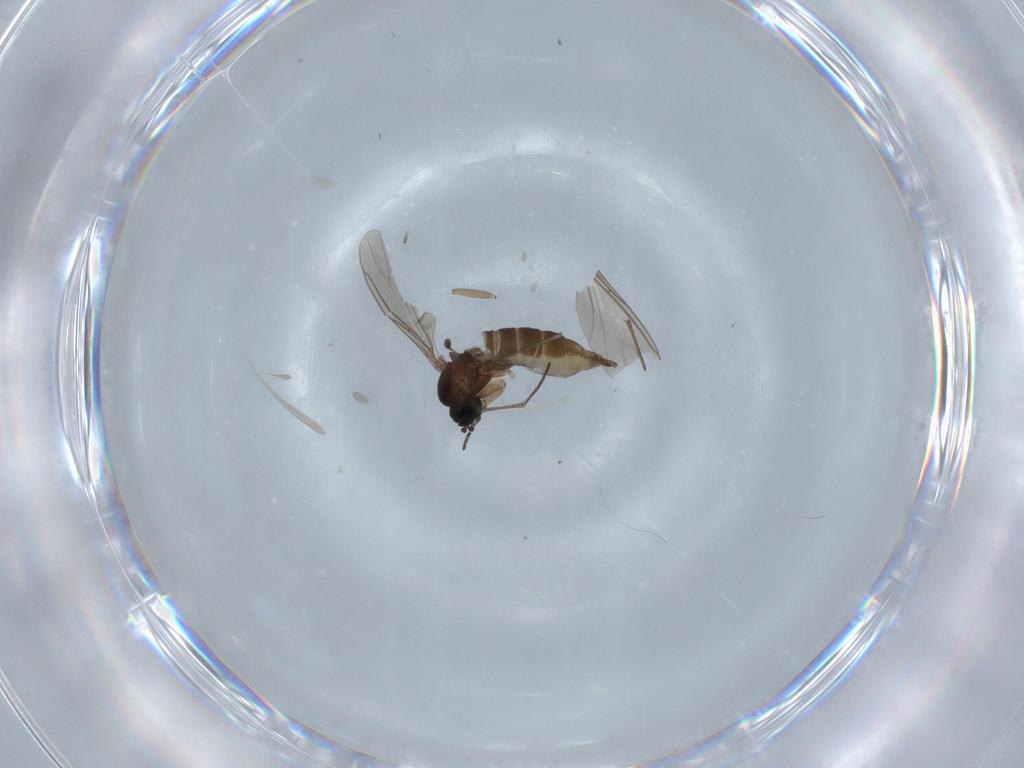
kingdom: Animalia
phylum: Arthropoda
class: Insecta
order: Diptera
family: Sciaridae
